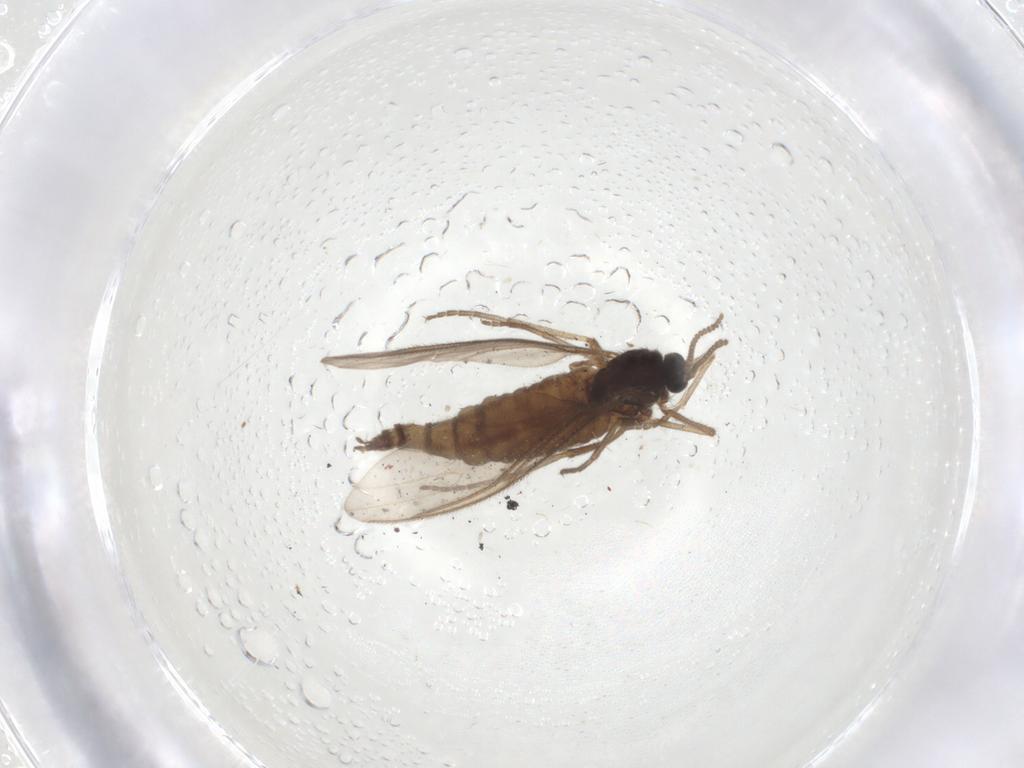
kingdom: Animalia
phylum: Arthropoda
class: Insecta
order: Diptera
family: Sciaridae
